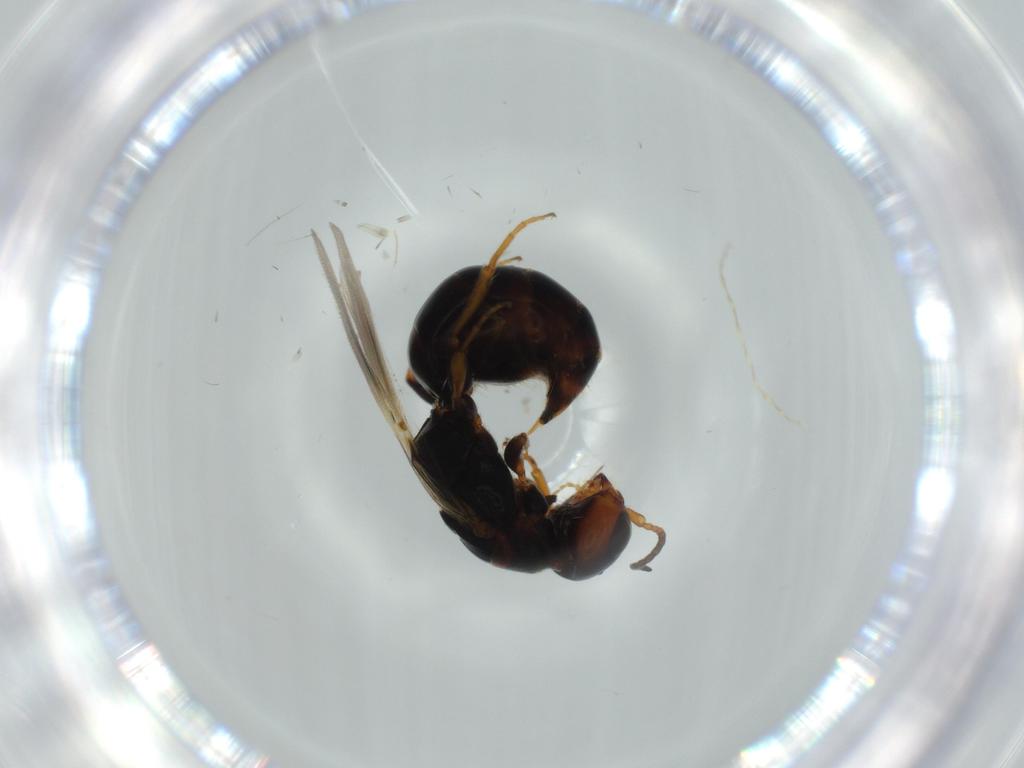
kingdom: Animalia
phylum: Arthropoda
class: Insecta
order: Hymenoptera
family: Bethylidae
